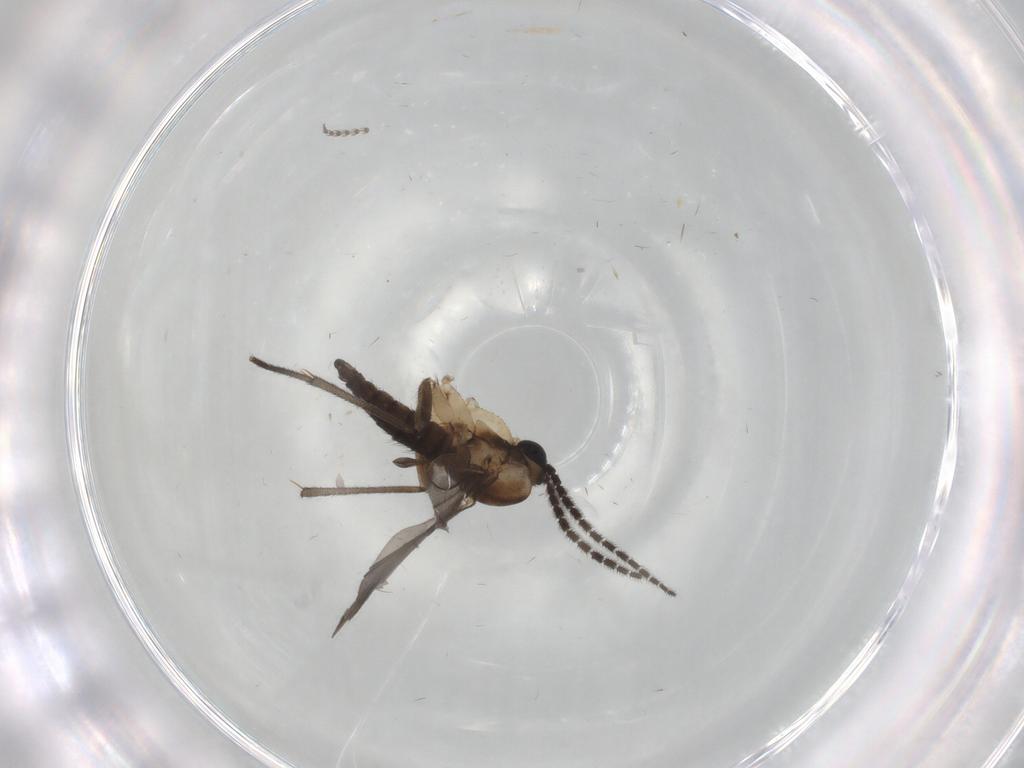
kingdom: Animalia
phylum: Arthropoda
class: Insecta
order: Diptera
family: Sciaridae
